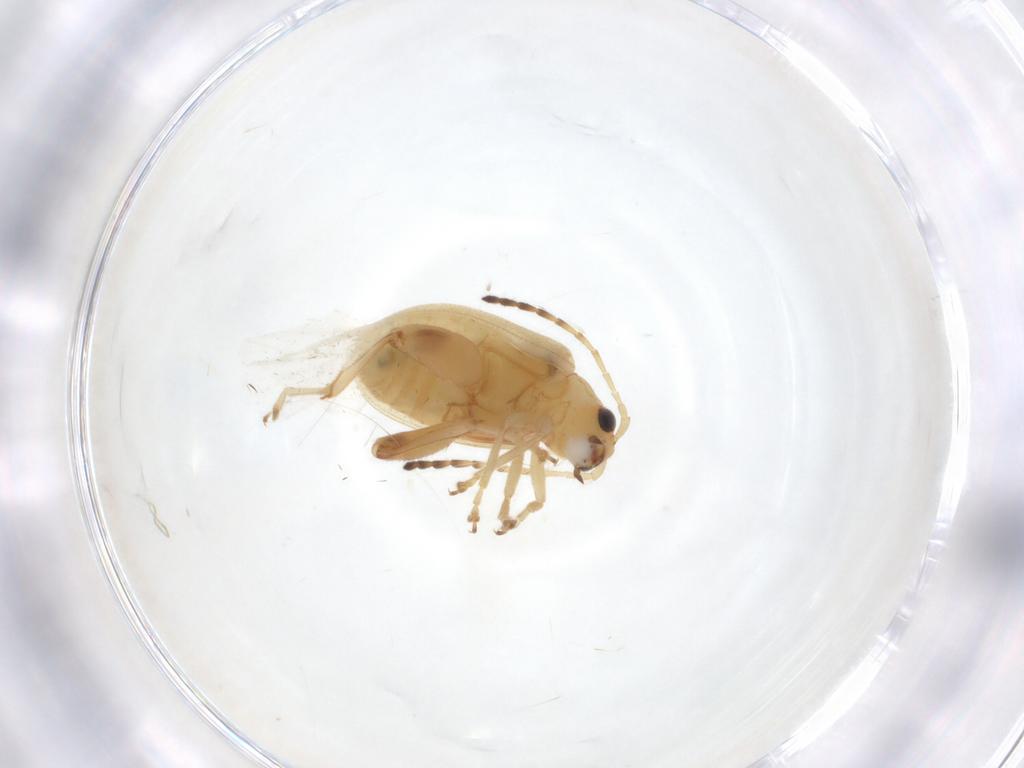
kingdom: Animalia
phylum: Arthropoda
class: Insecta
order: Coleoptera
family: Chrysomelidae
